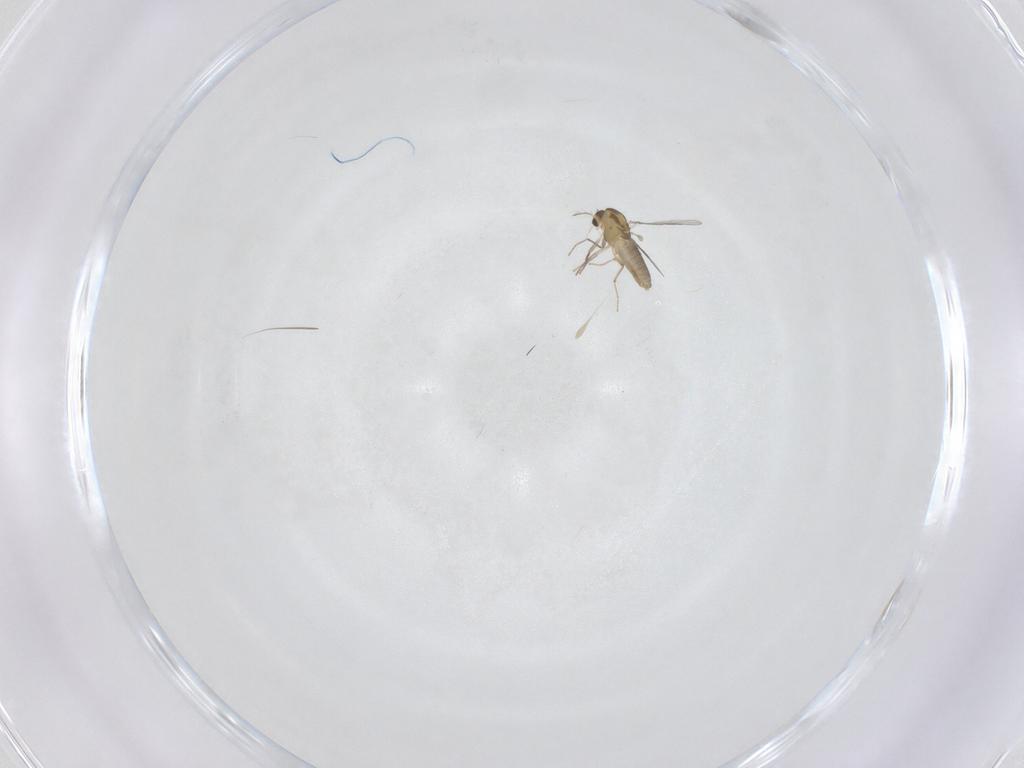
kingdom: Animalia
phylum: Arthropoda
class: Insecta
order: Diptera
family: Chironomidae
